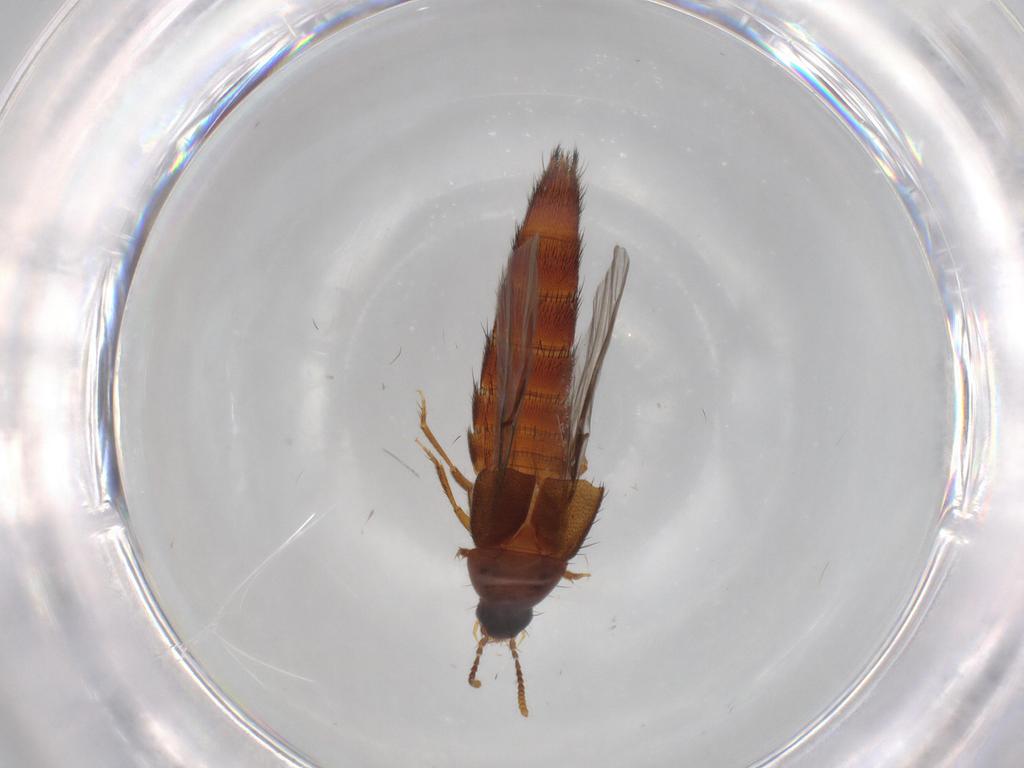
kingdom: Animalia
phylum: Arthropoda
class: Insecta
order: Coleoptera
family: Staphylinidae
